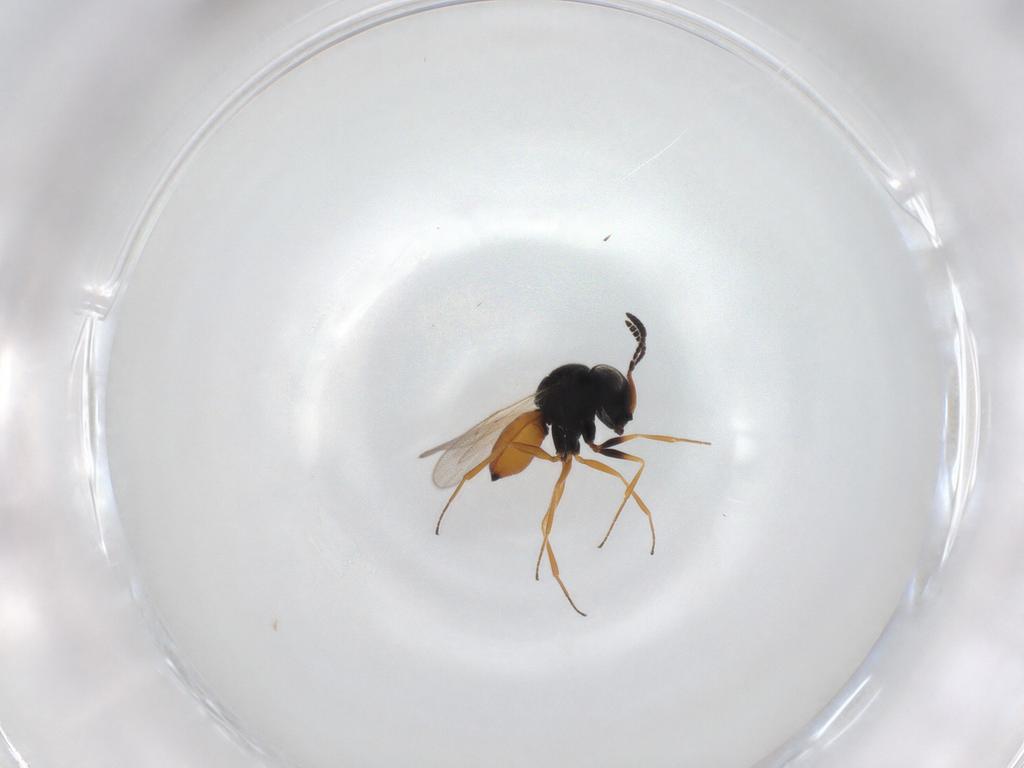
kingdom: Animalia
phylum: Arthropoda
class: Insecta
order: Hymenoptera
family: Scelionidae
